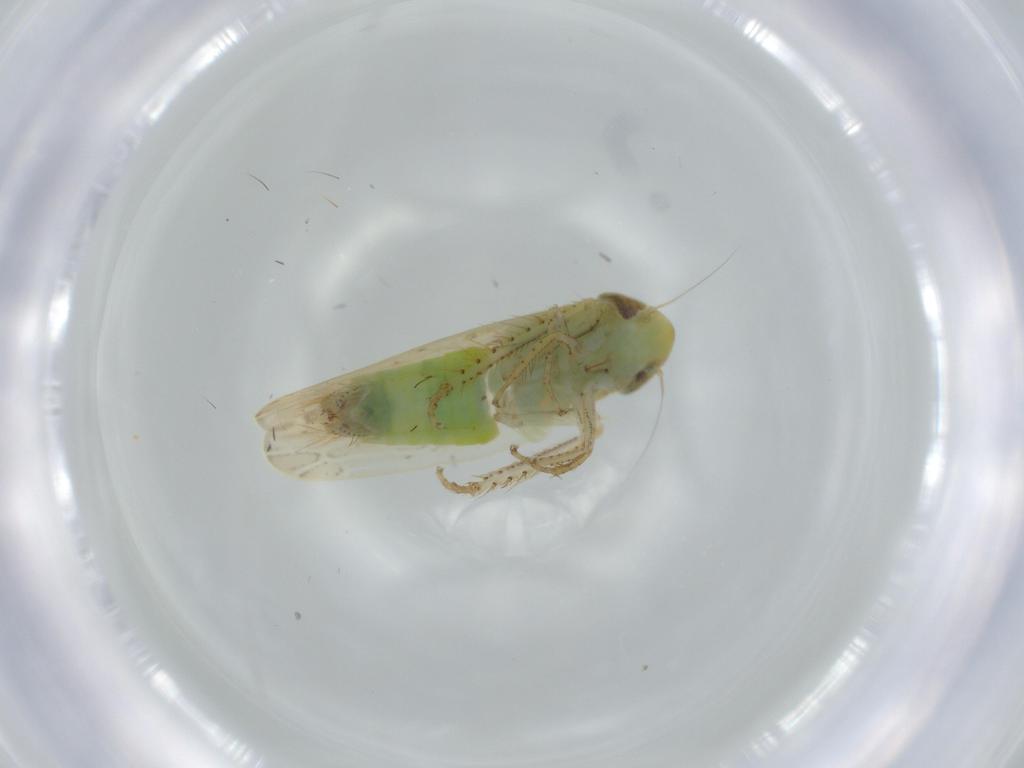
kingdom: Animalia
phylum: Arthropoda
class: Insecta
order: Hemiptera
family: Cicadellidae
